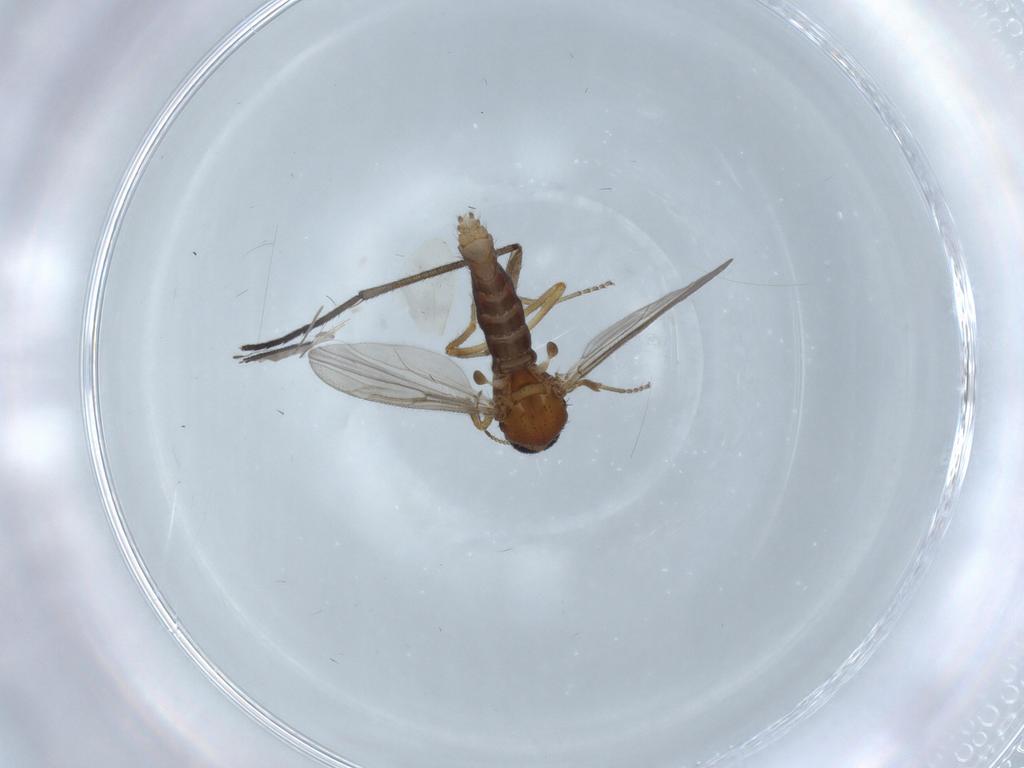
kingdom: Animalia
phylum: Arthropoda
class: Insecta
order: Diptera
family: Ceratopogonidae
